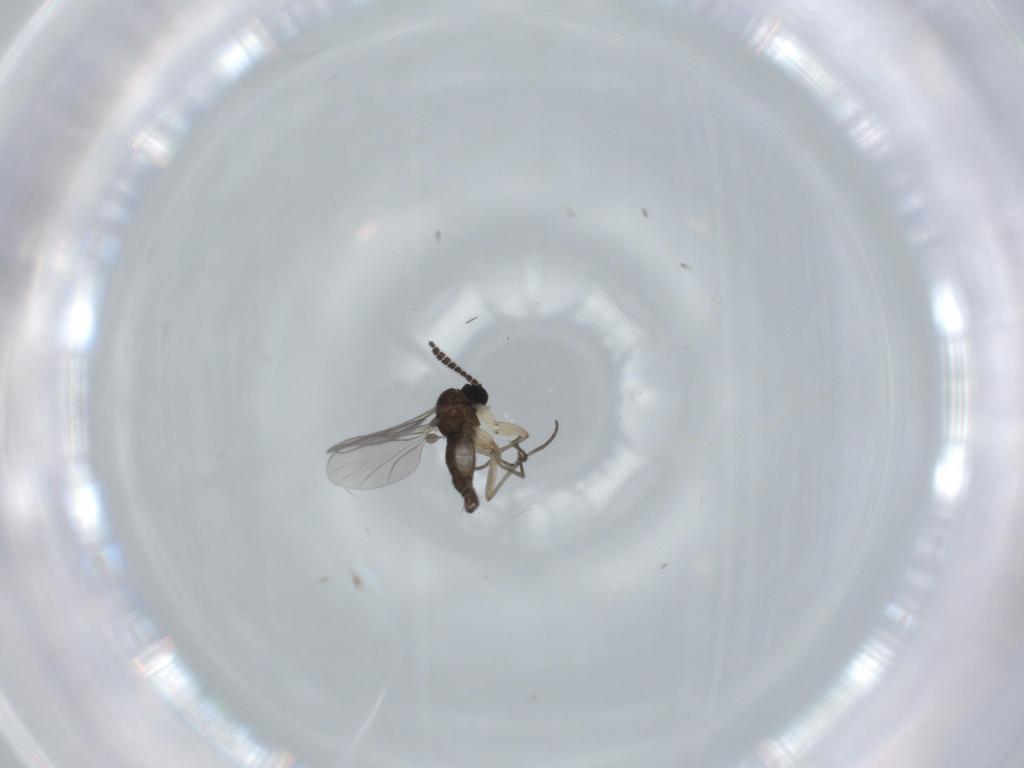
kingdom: Animalia
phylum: Arthropoda
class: Insecta
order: Diptera
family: Sciaridae
